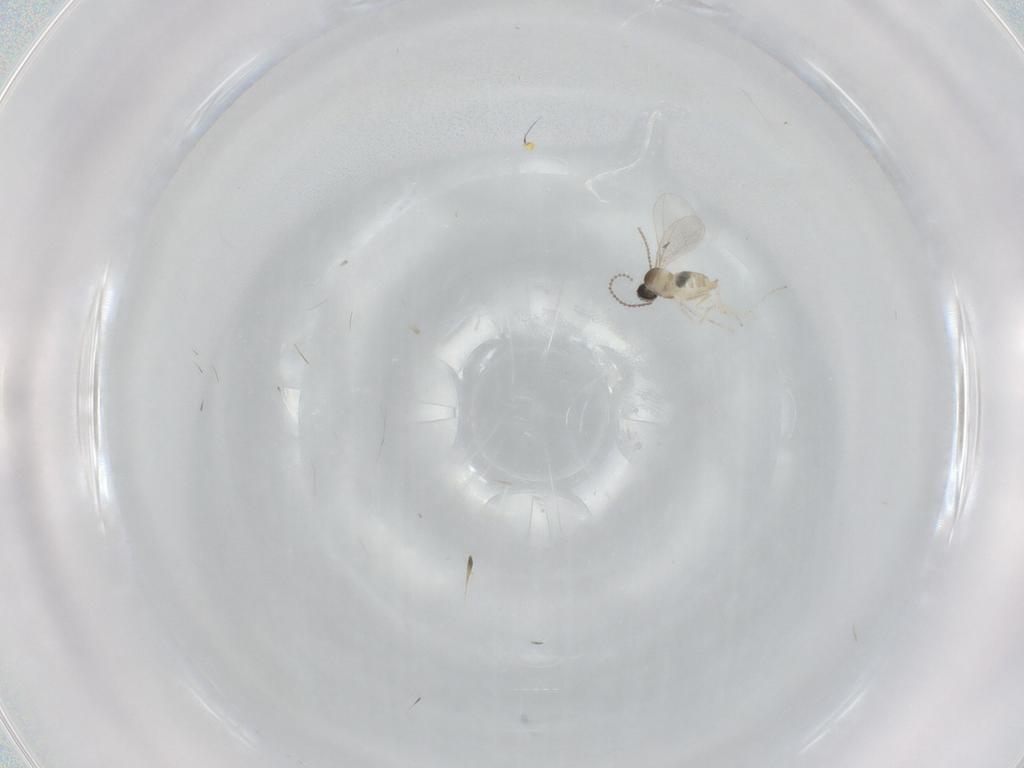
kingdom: Animalia
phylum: Arthropoda
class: Insecta
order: Diptera
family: Cecidomyiidae
